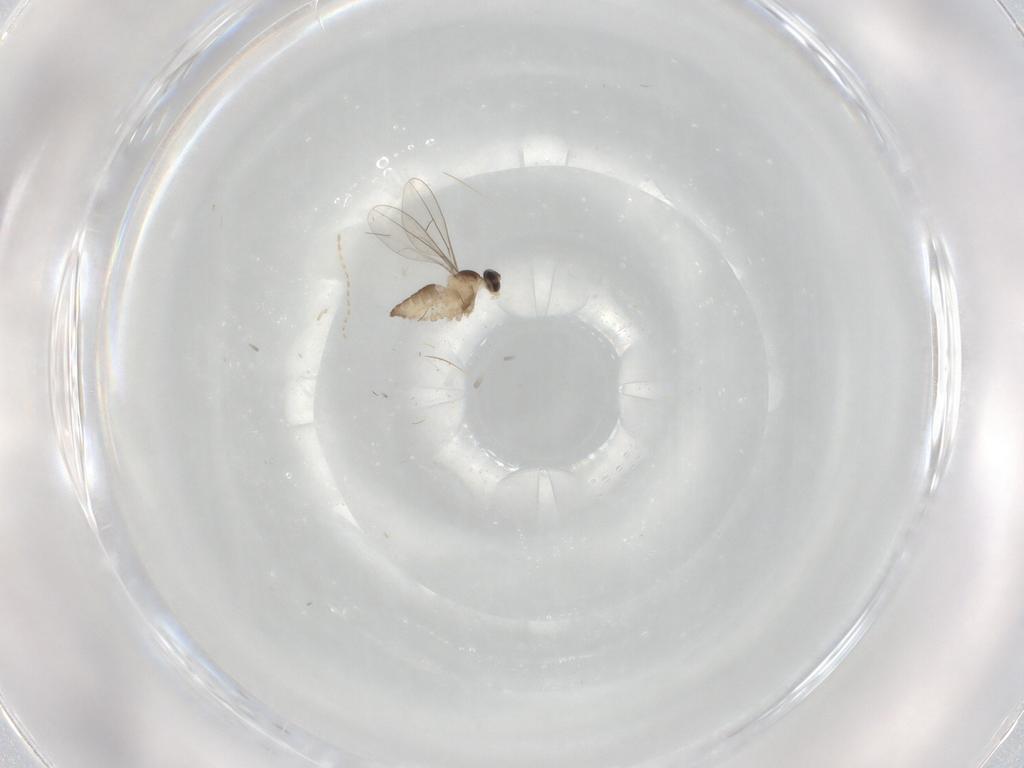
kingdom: Animalia
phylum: Arthropoda
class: Insecta
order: Diptera
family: Cecidomyiidae
